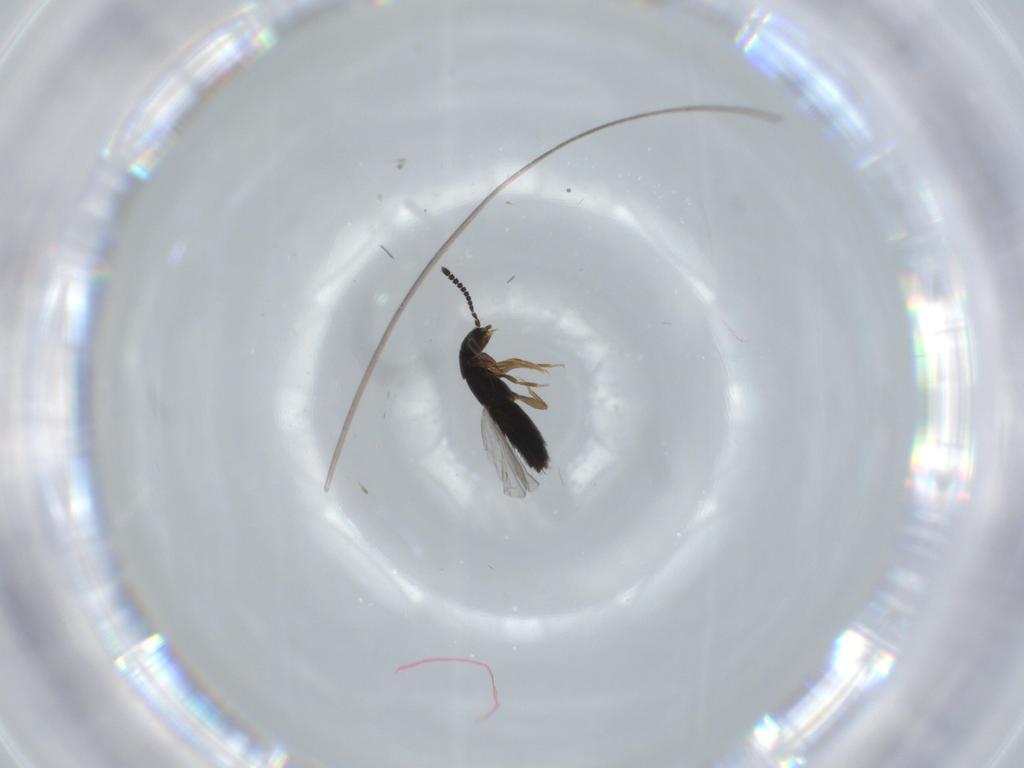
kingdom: Animalia
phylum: Arthropoda
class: Insecta
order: Coleoptera
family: Staphylinidae
